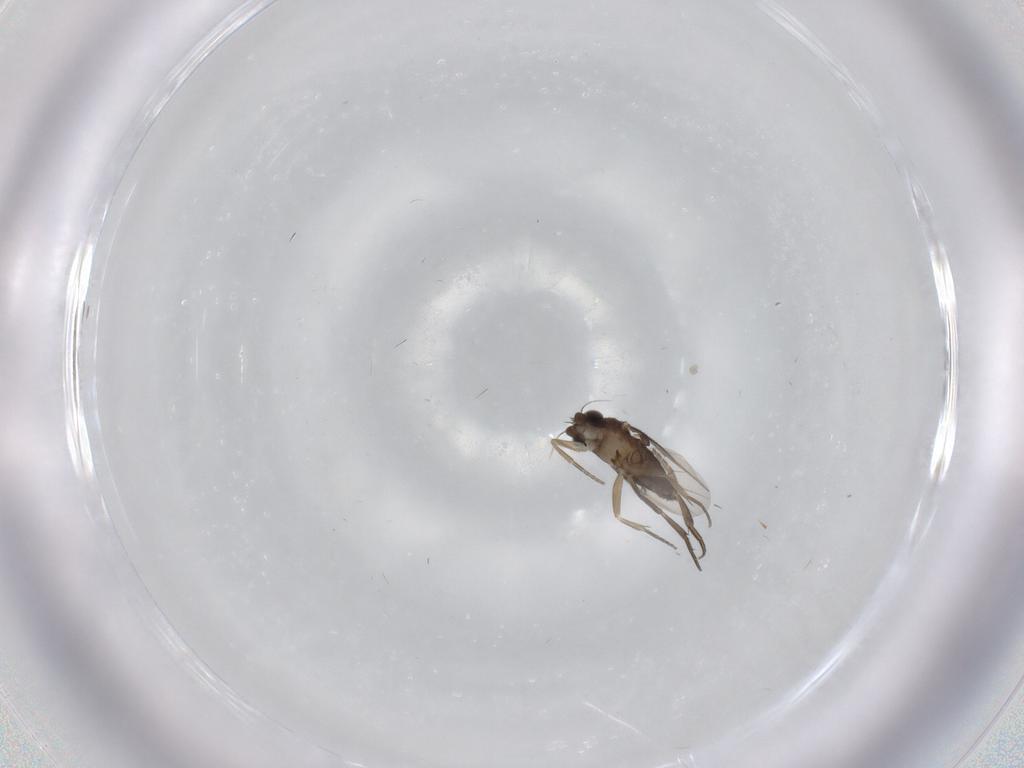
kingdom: Animalia
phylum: Arthropoda
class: Insecta
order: Diptera
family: Phoridae
